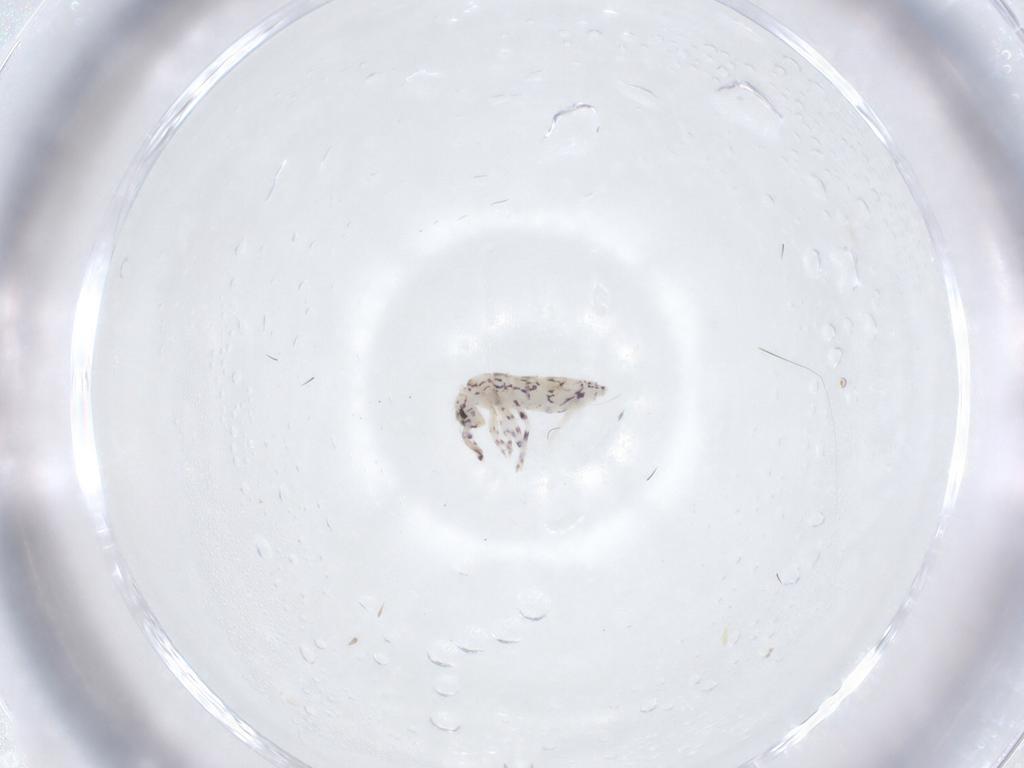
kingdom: Animalia
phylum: Arthropoda
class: Collembola
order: Entomobryomorpha
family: Entomobryidae
